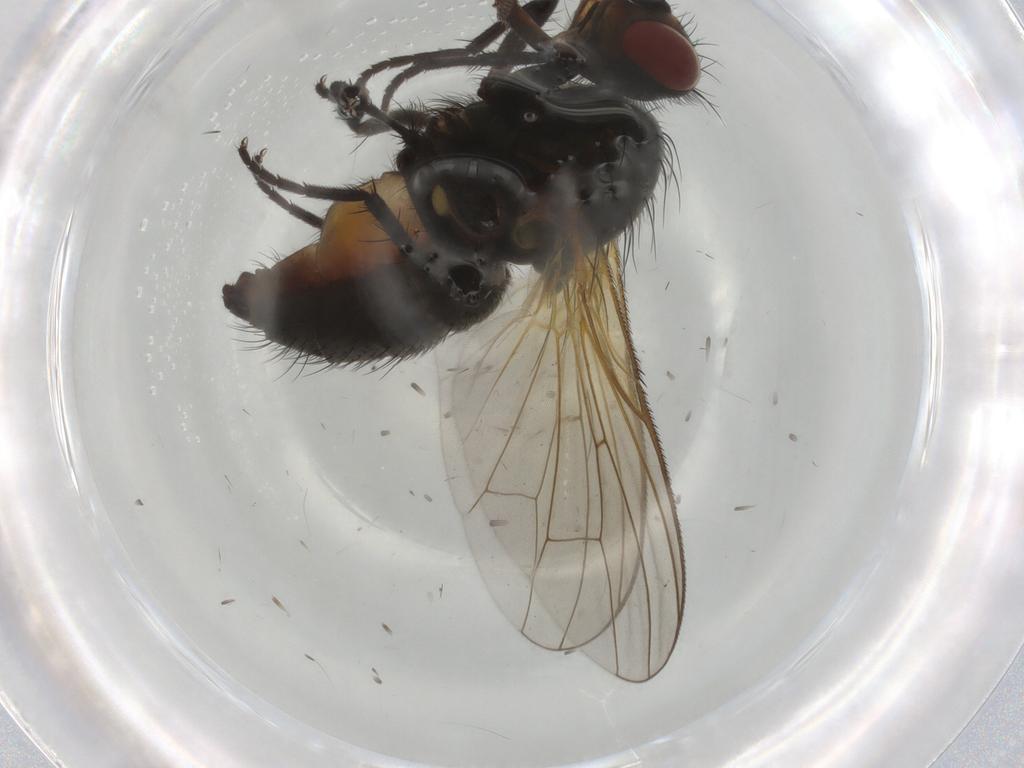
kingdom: Animalia
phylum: Arthropoda
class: Insecta
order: Diptera
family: Anthomyiidae
